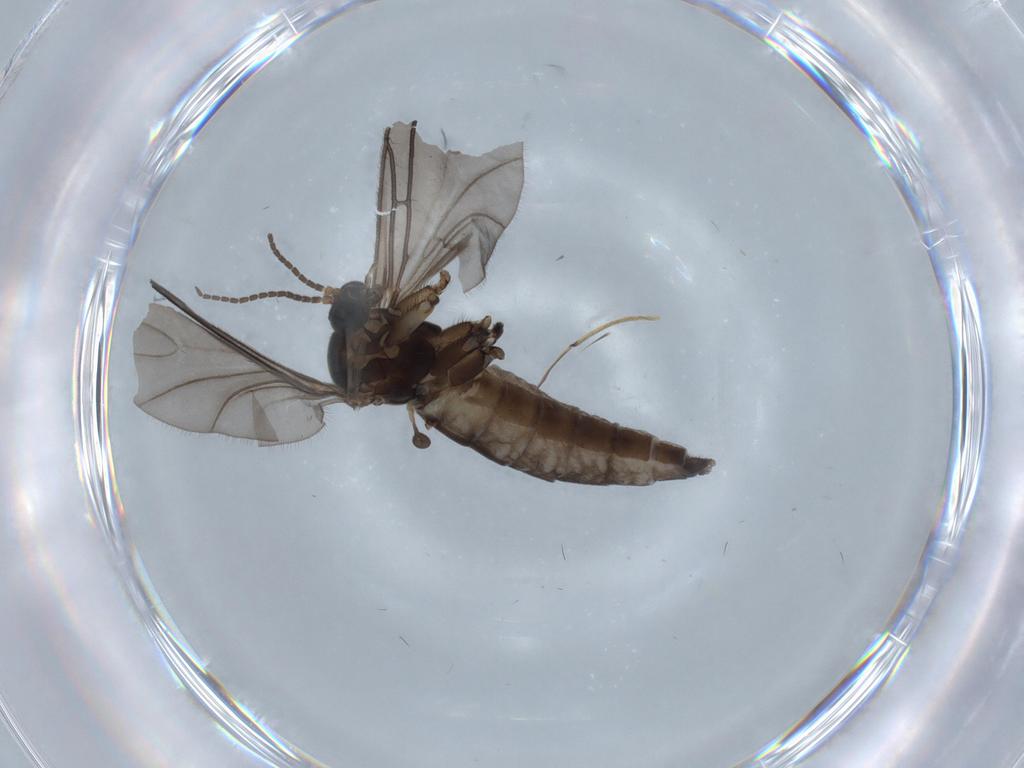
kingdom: Animalia
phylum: Arthropoda
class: Insecta
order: Diptera
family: Sciaridae
